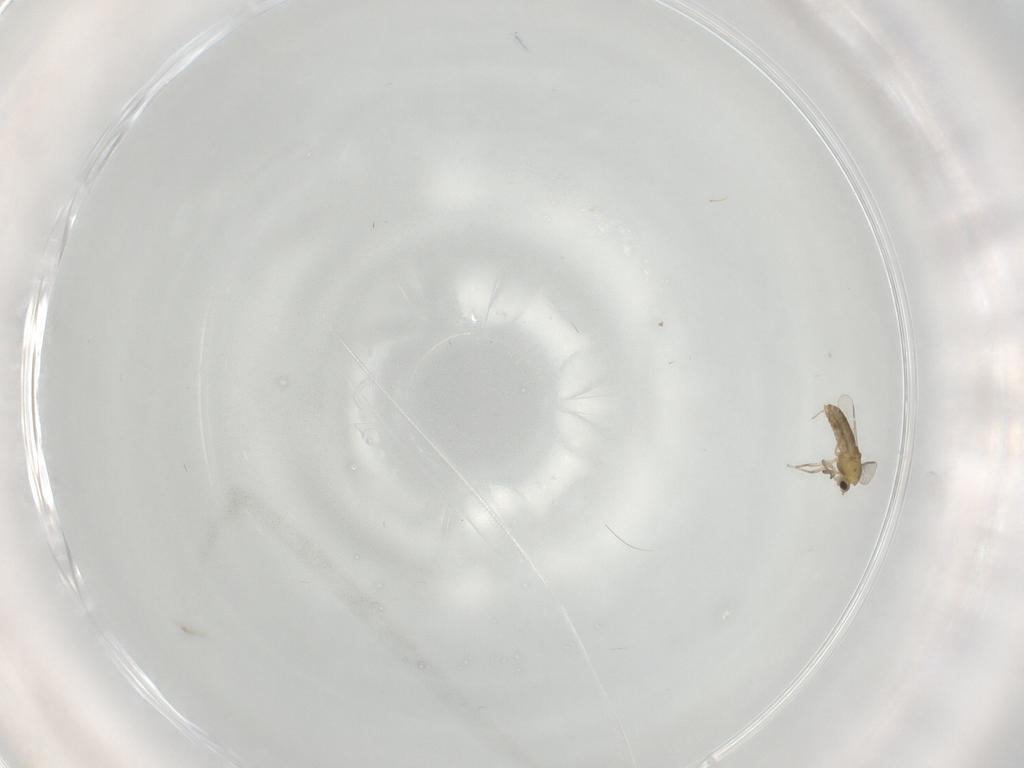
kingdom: Animalia
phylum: Arthropoda
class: Insecta
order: Diptera
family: Chironomidae
